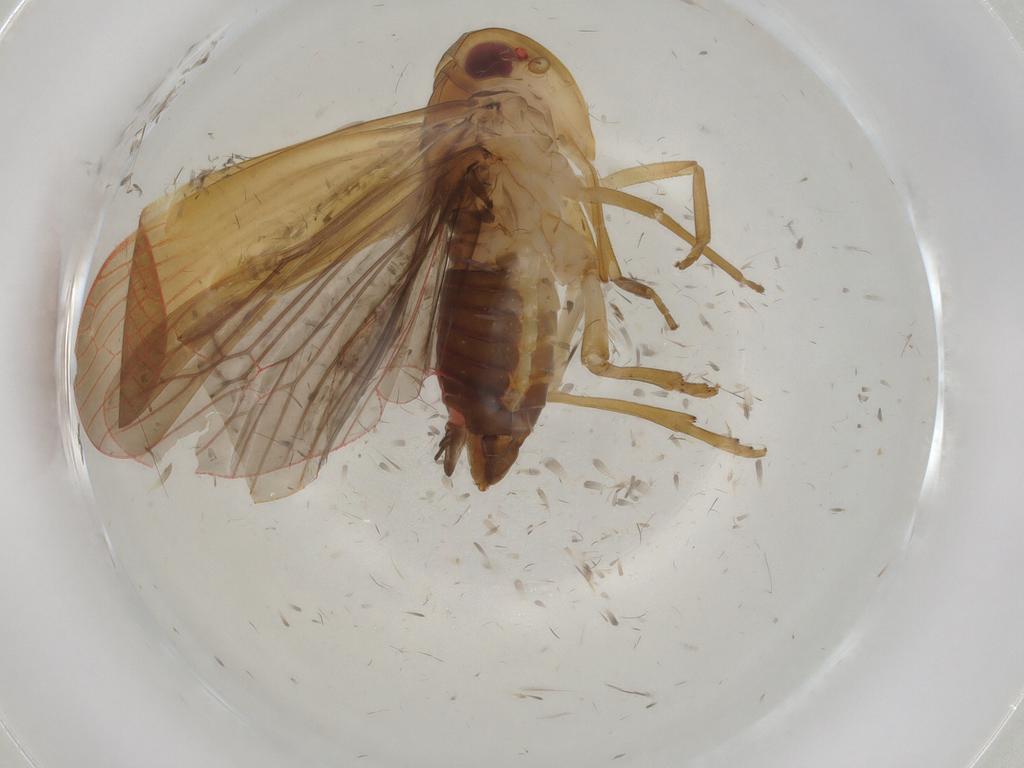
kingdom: Animalia
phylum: Arthropoda
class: Insecta
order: Hemiptera
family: Achilidae
